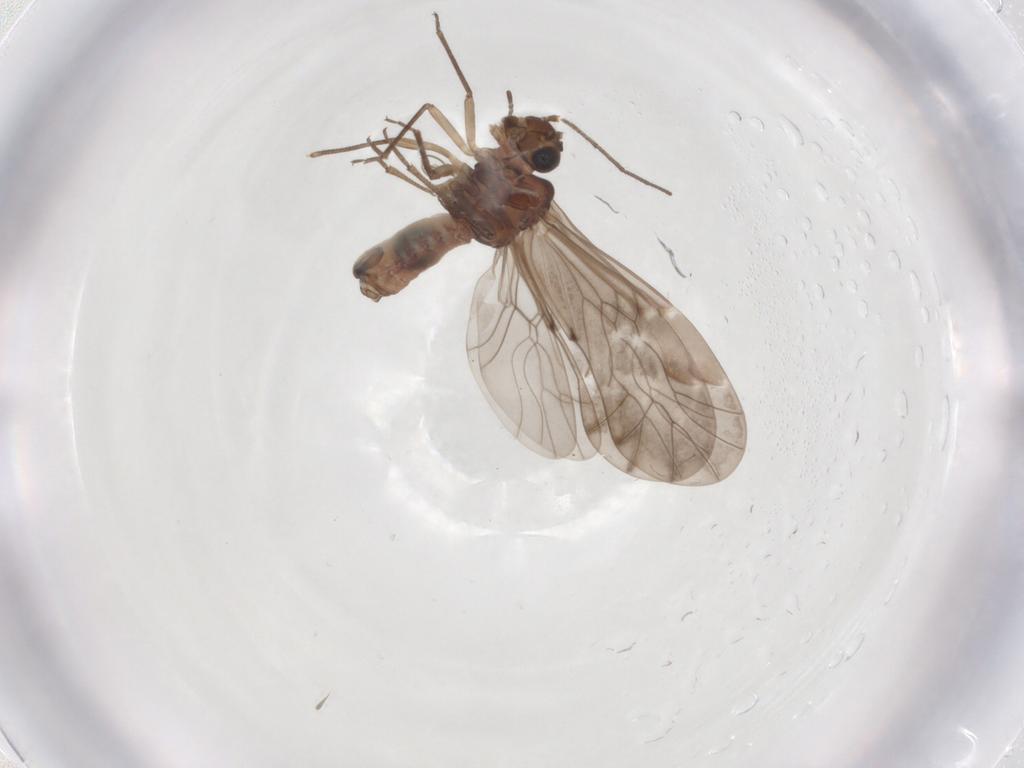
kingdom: Animalia
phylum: Arthropoda
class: Insecta
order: Psocodea
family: Peripsocidae
